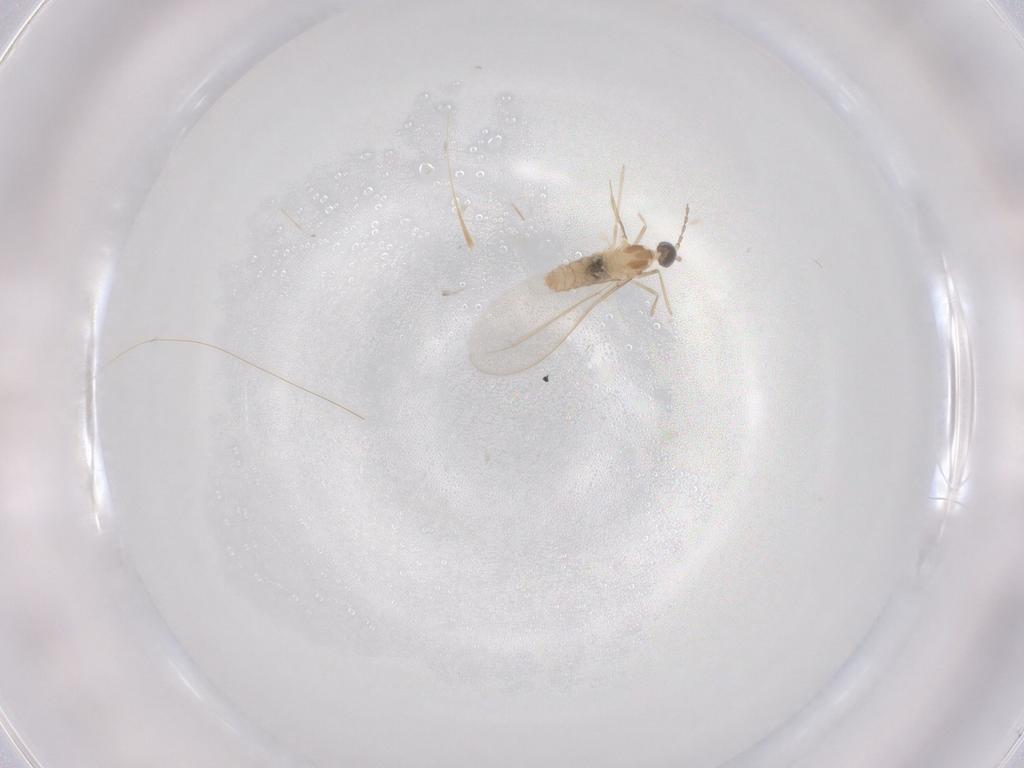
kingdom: Animalia
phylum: Arthropoda
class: Insecta
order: Diptera
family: Cecidomyiidae
